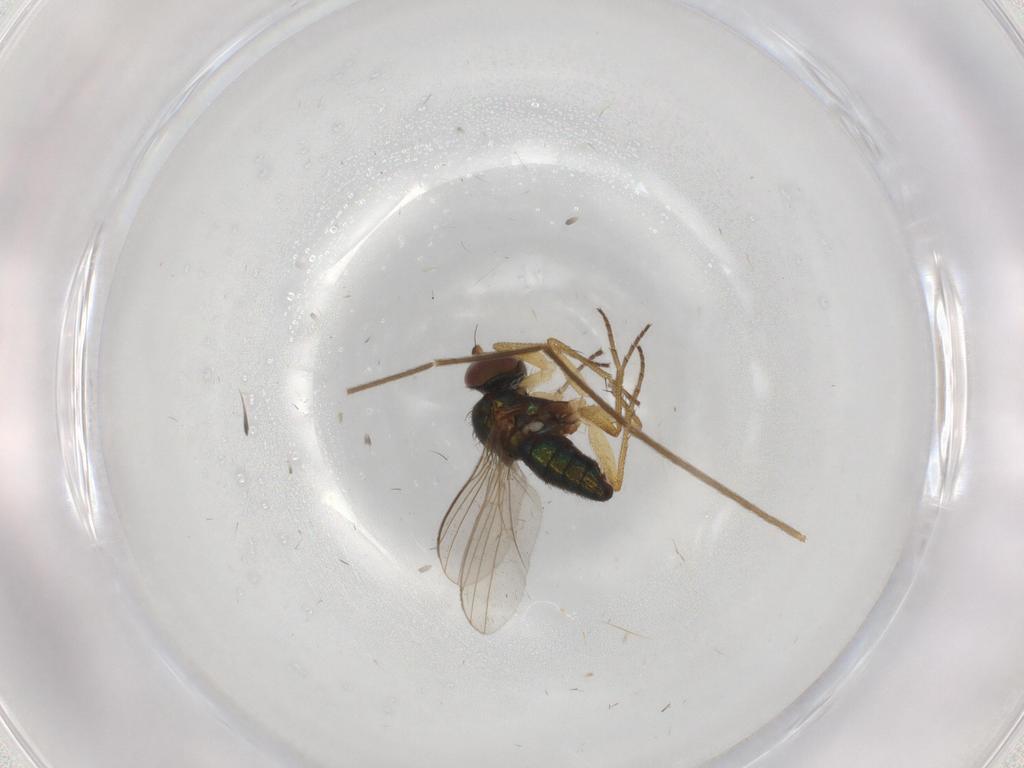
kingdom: Animalia
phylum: Arthropoda
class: Insecta
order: Diptera
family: Chironomidae
